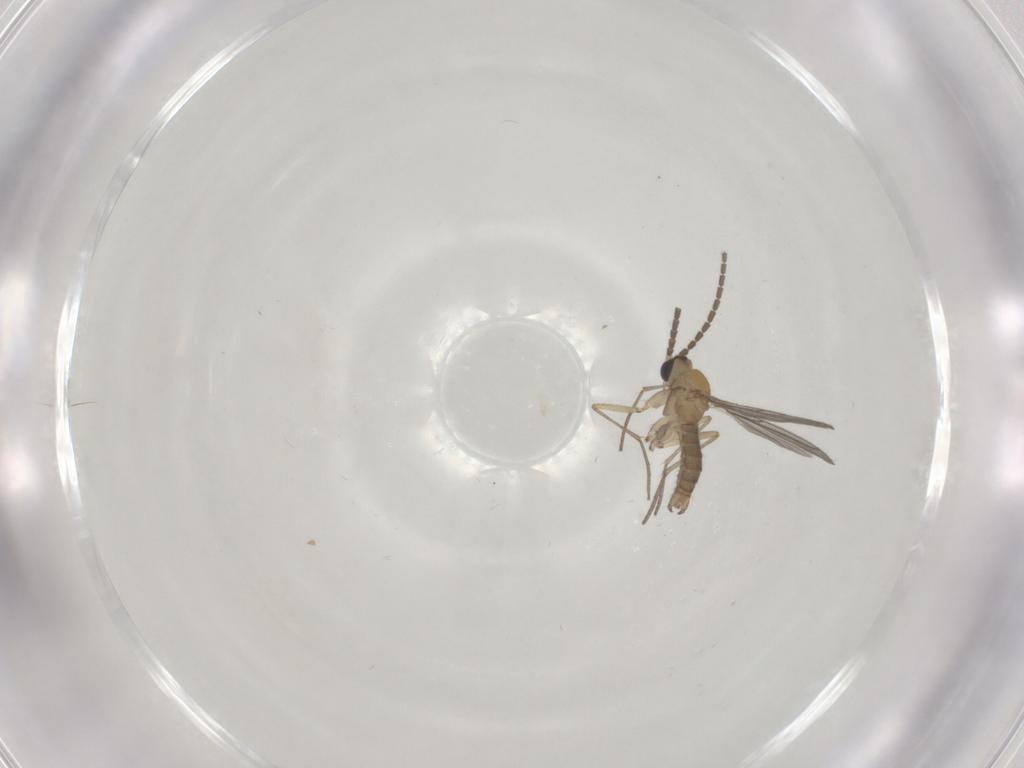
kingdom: Animalia
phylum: Arthropoda
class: Insecta
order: Diptera
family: Sciaridae
